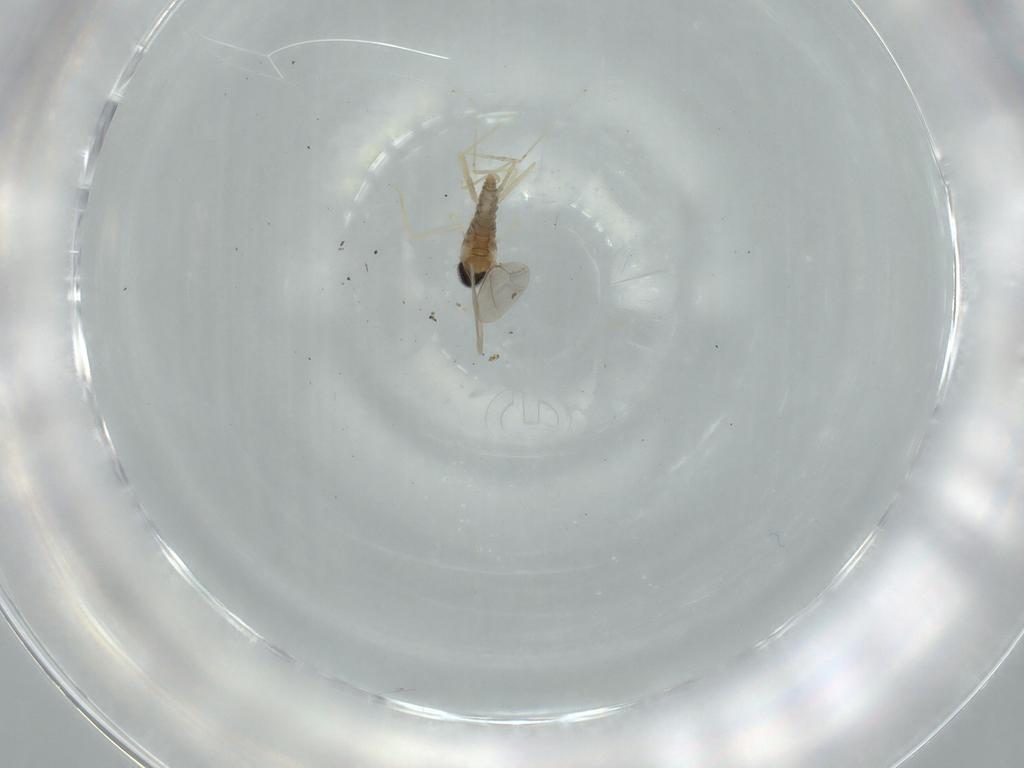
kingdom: Animalia
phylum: Arthropoda
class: Insecta
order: Diptera
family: Cecidomyiidae
